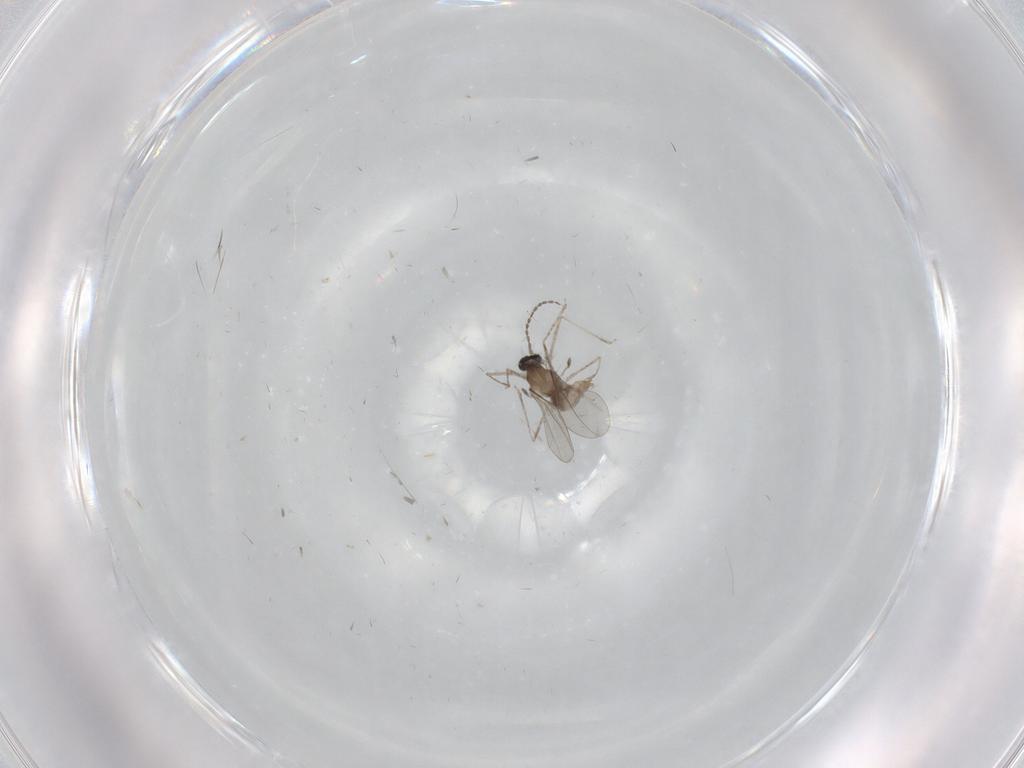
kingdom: Animalia
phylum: Arthropoda
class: Insecta
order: Diptera
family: Cecidomyiidae
